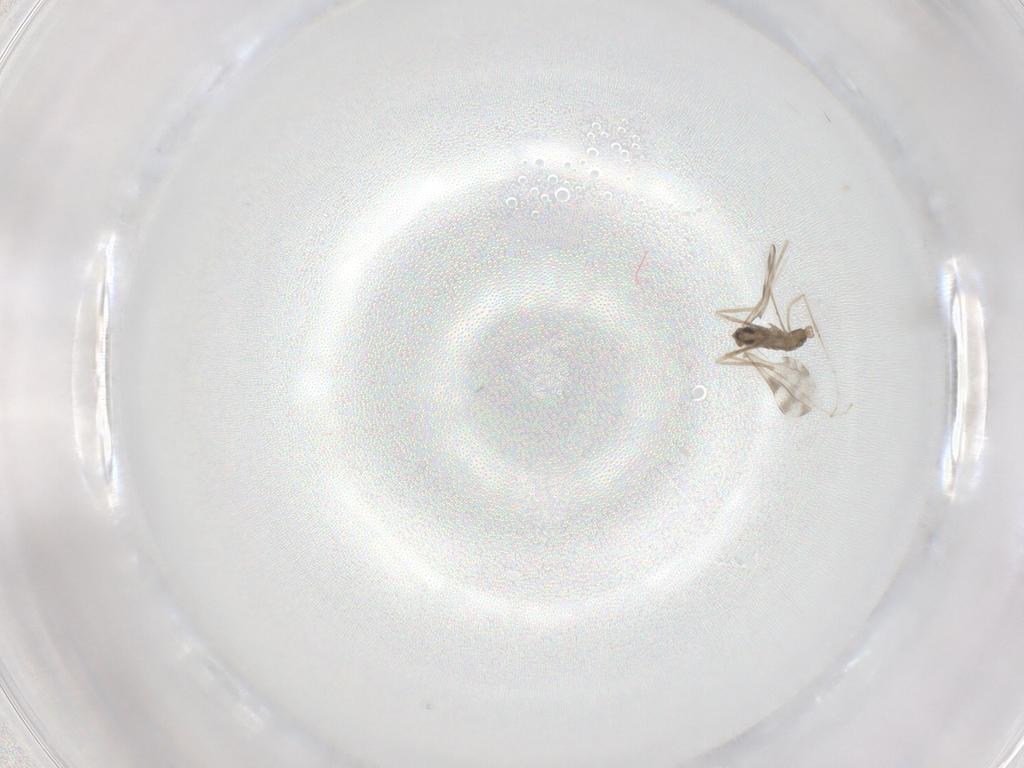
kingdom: Animalia
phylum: Arthropoda
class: Insecta
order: Diptera
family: Cecidomyiidae
